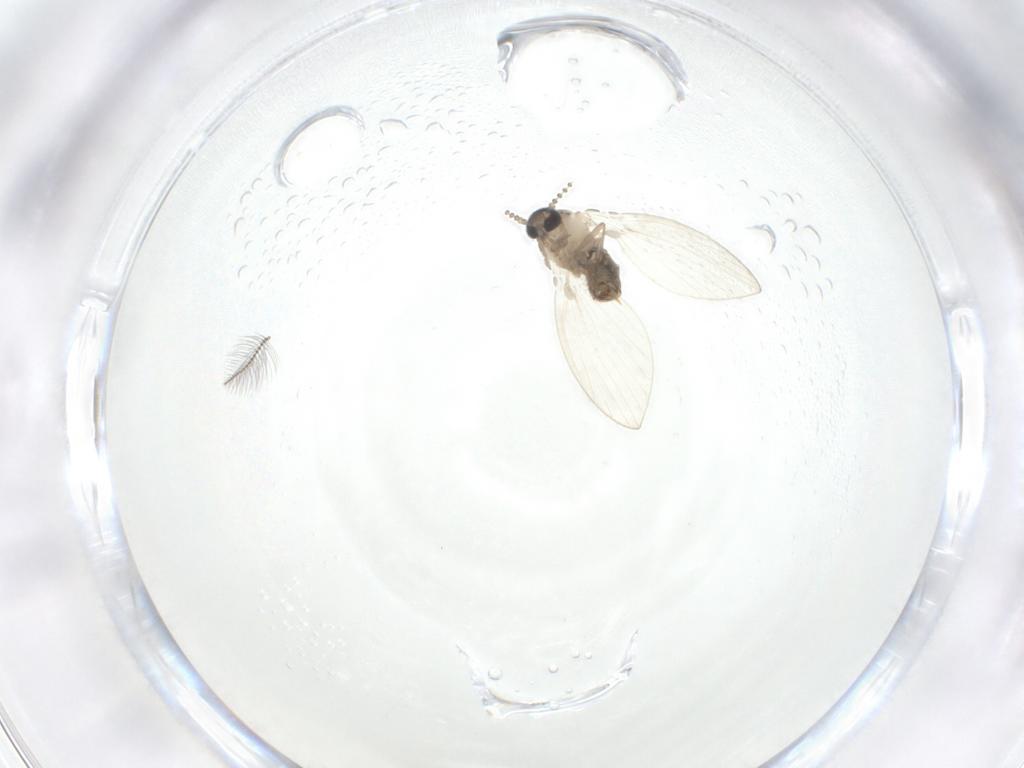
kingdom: Animalia
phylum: Arthropoda
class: Insecta
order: Diptera
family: Psychodidae
